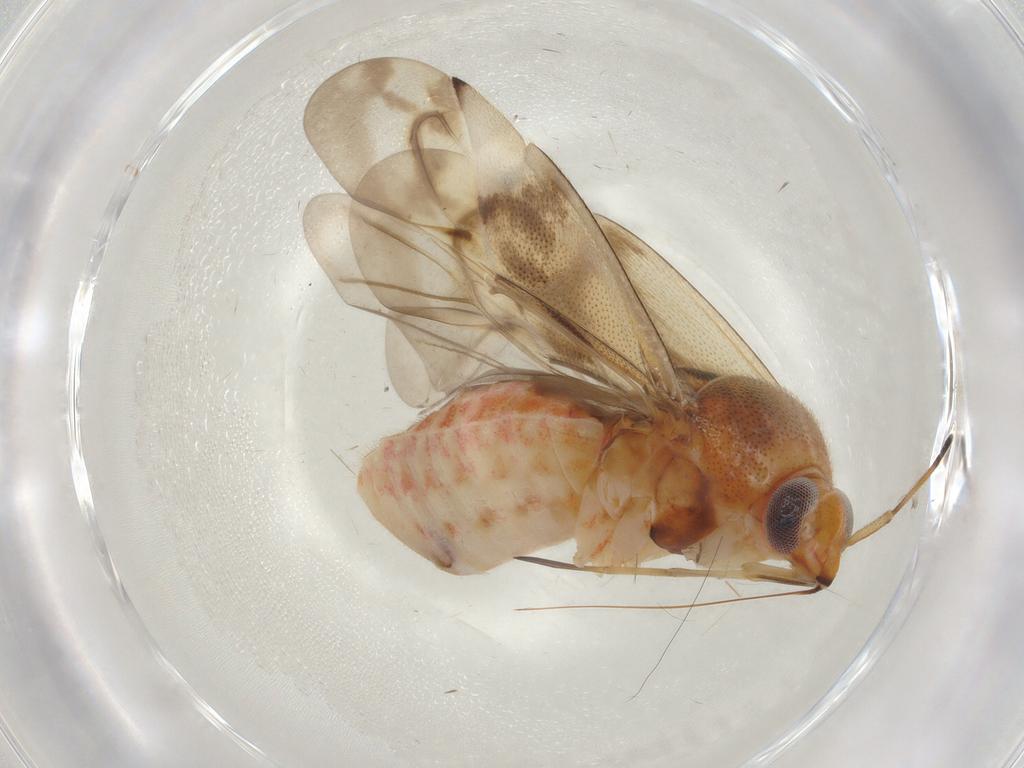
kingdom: Animalia
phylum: Arthropoda
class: Insecta
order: Hemiptera
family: Miridae
